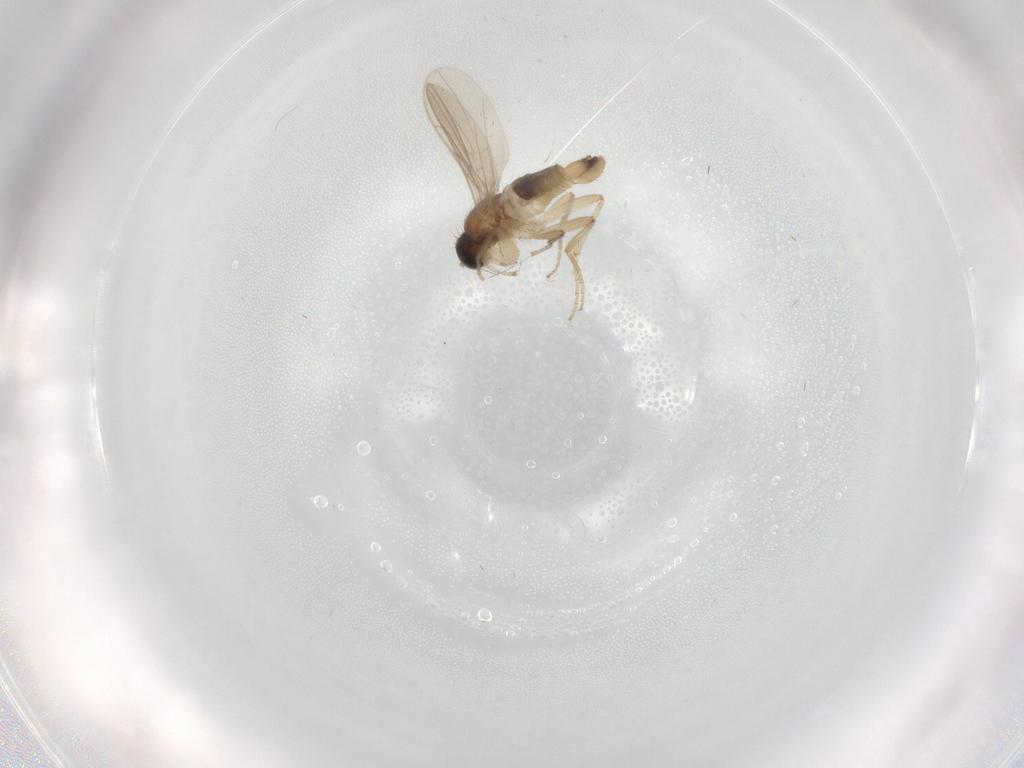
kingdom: Animalia
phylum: Arthropoda
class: Insecta
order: Diptera
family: Hybotidae
